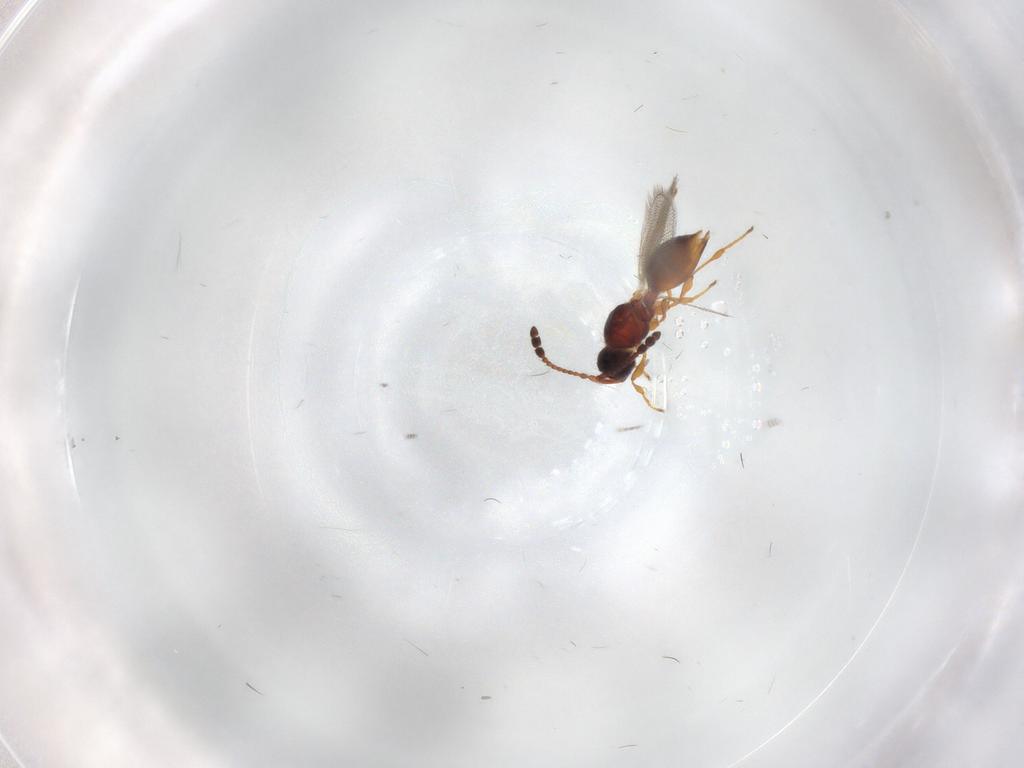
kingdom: Animalia
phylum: Arthropoda
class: Insecta
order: Hymenoptera
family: Diapriidae
